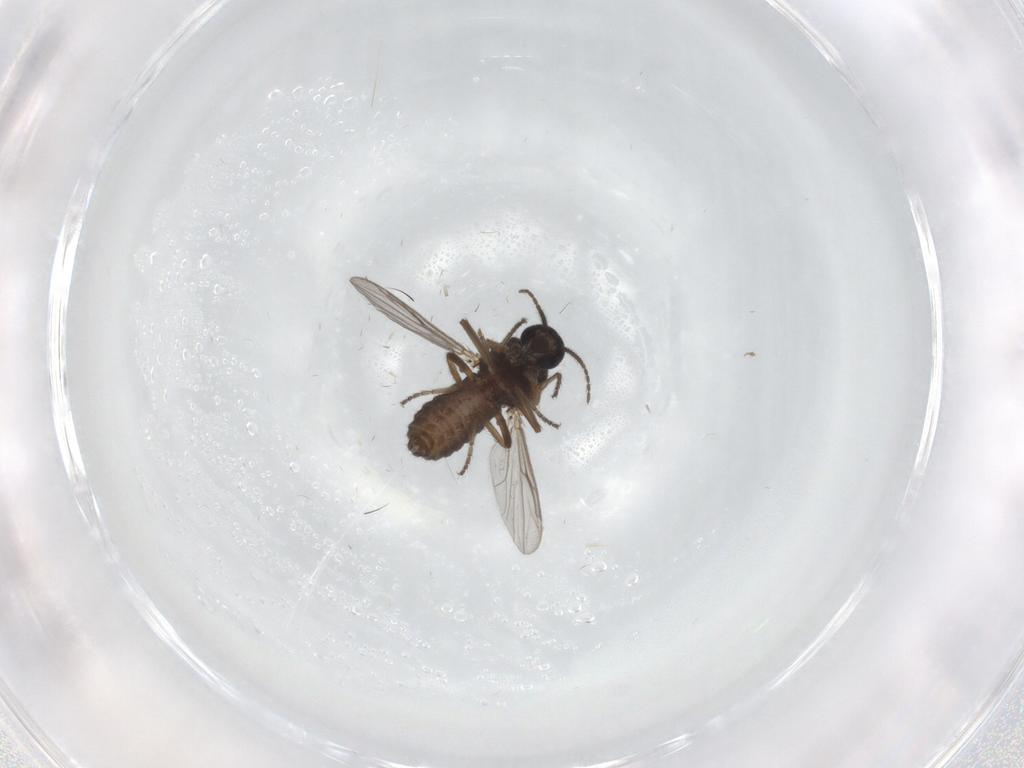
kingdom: Animalia
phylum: Arthropoda
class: Insecta
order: Diptera
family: Ceratopogonidae
